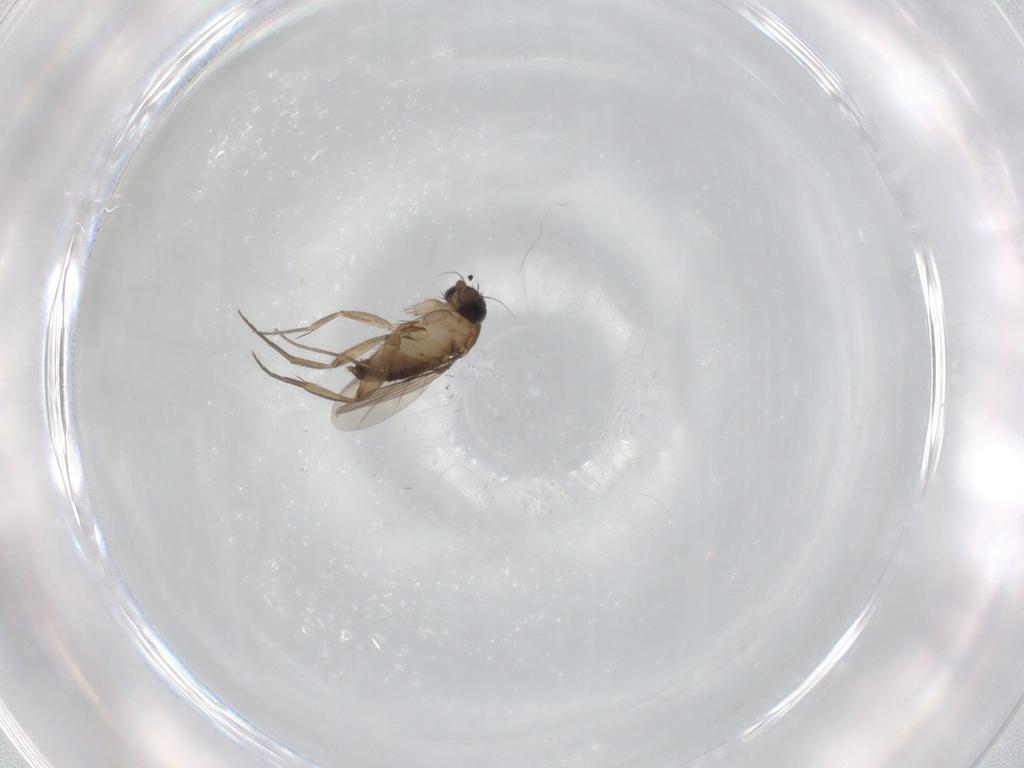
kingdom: Animalia
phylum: Arthropoda
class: Insecta
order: Diptera
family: Phoridae
